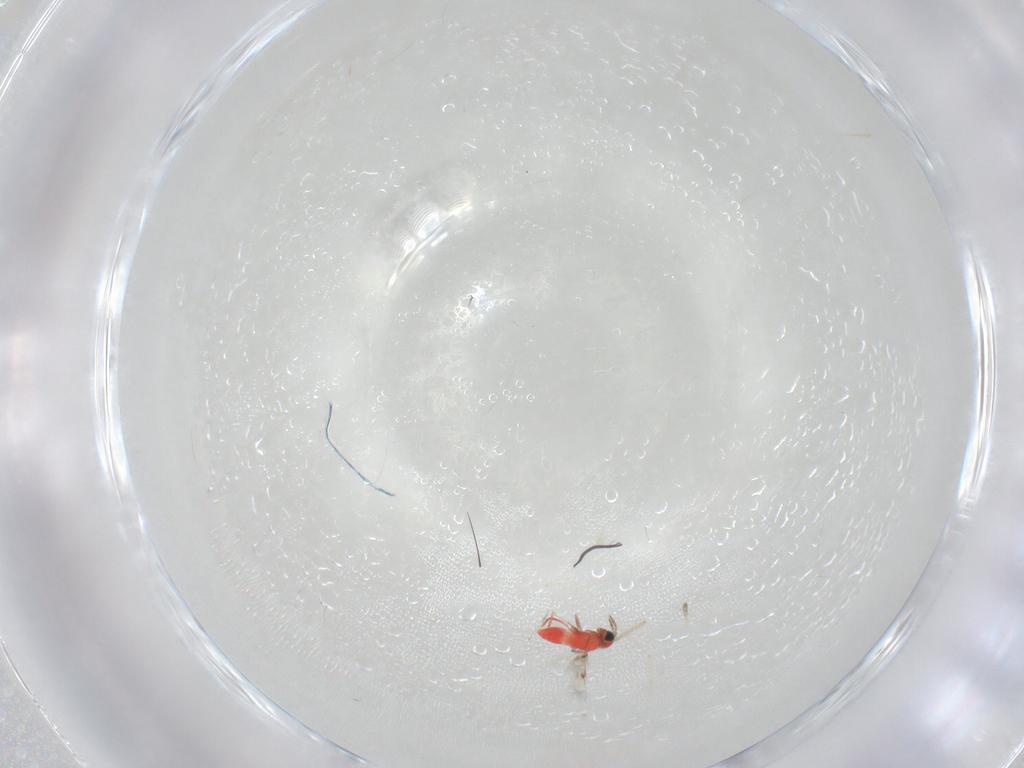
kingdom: Animalia
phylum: Arthropoda
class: Insecta
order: Hymenoptera
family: Trichogrammatidae
